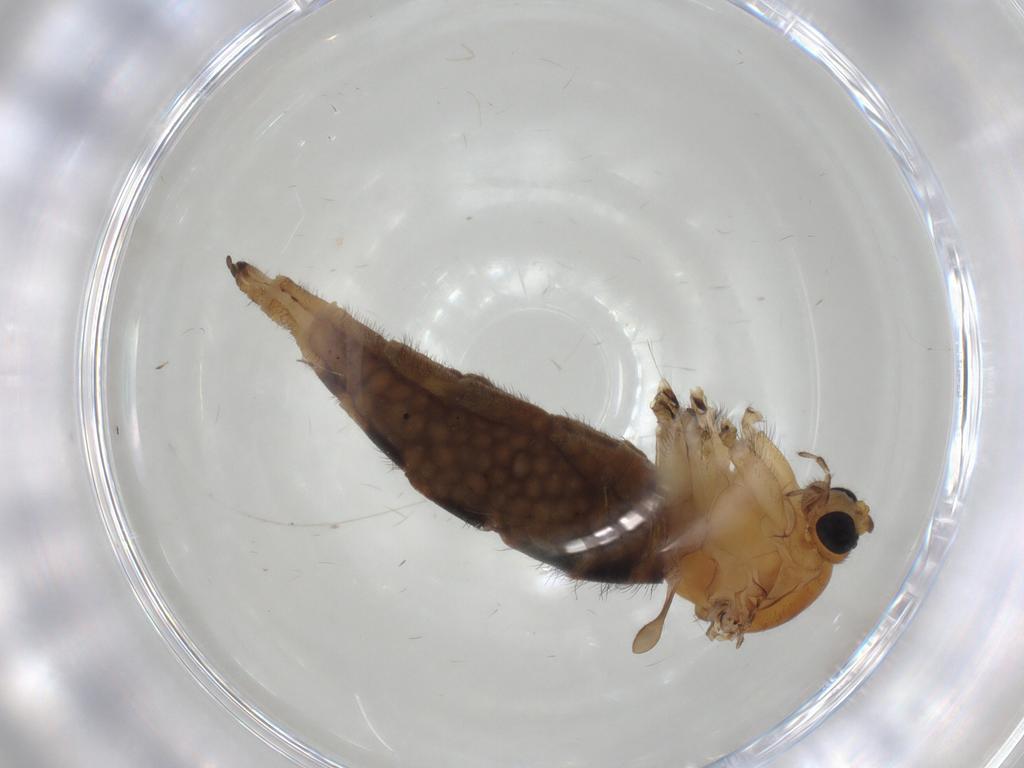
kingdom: Animalia
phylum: Arthropoda
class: Insecta
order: Diptera
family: Sciaridae
